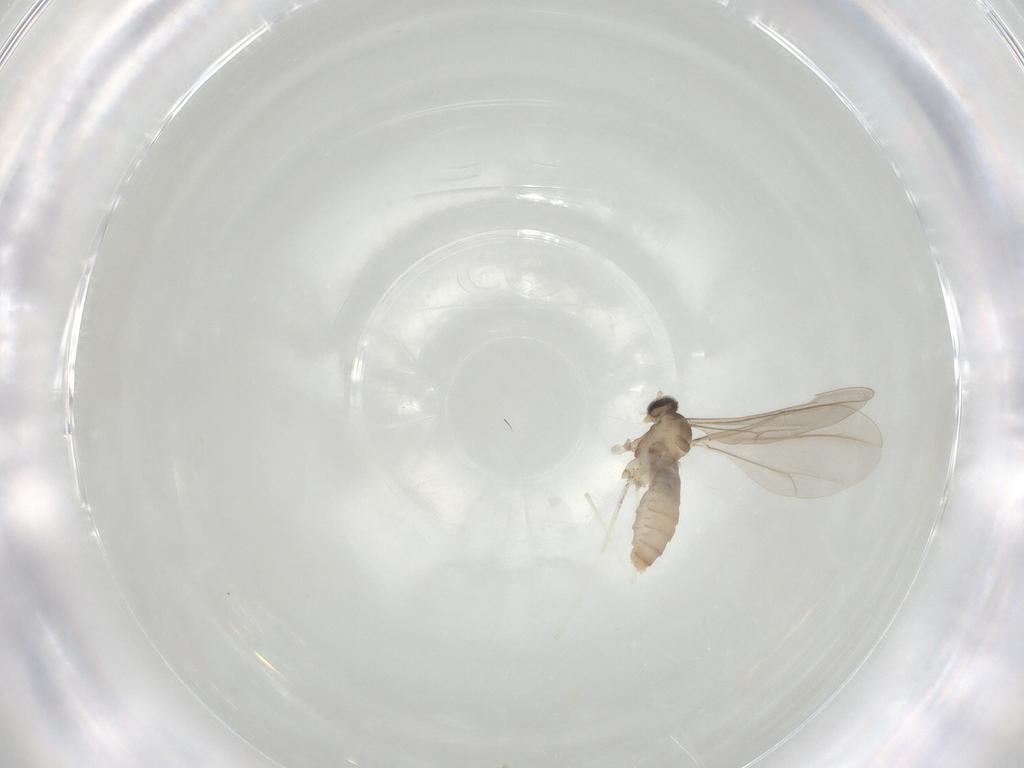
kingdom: Animalia
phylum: Arthropoda
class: Insecta
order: Diptera
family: Cecidomyiidae
